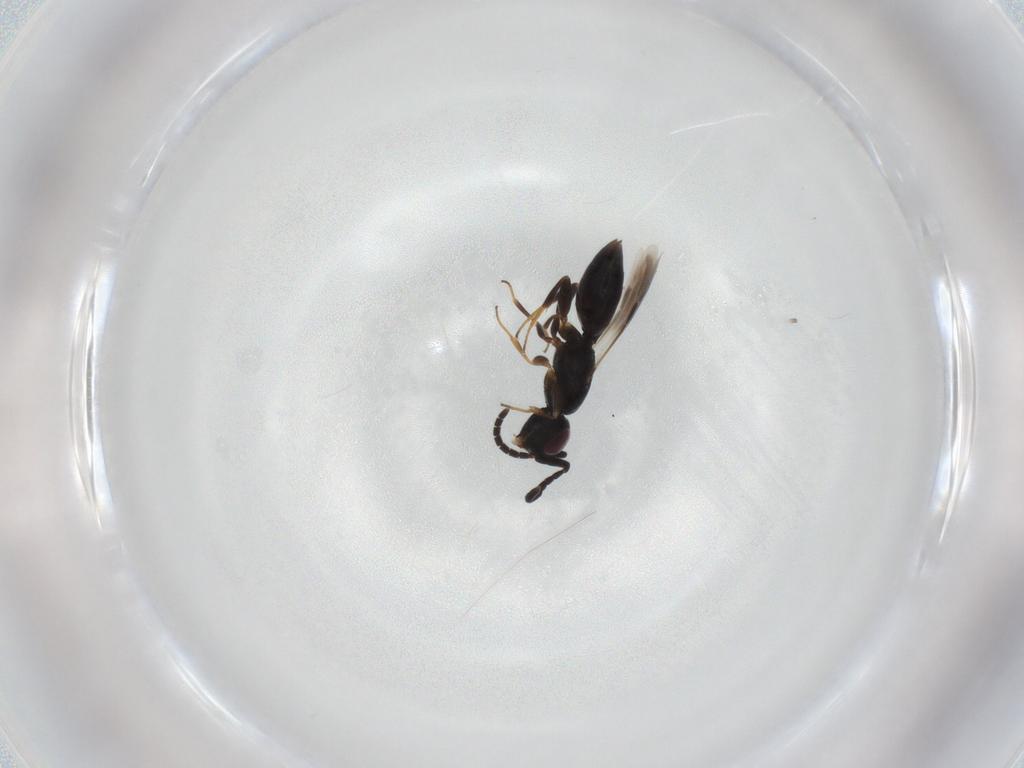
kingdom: Animalia
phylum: Arthropoda
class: Insecta
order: Hymenoptera
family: Megaspilidae
